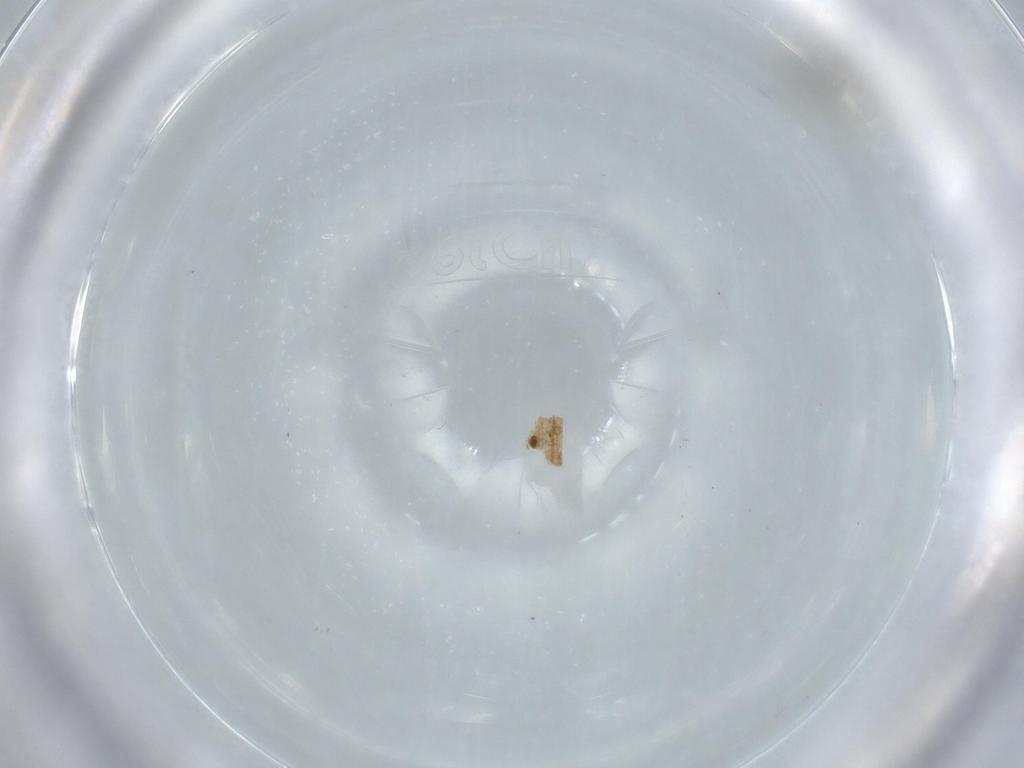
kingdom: Animalia
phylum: Arthropoda
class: Insecta
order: Diptera
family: Cecidomyiidae
